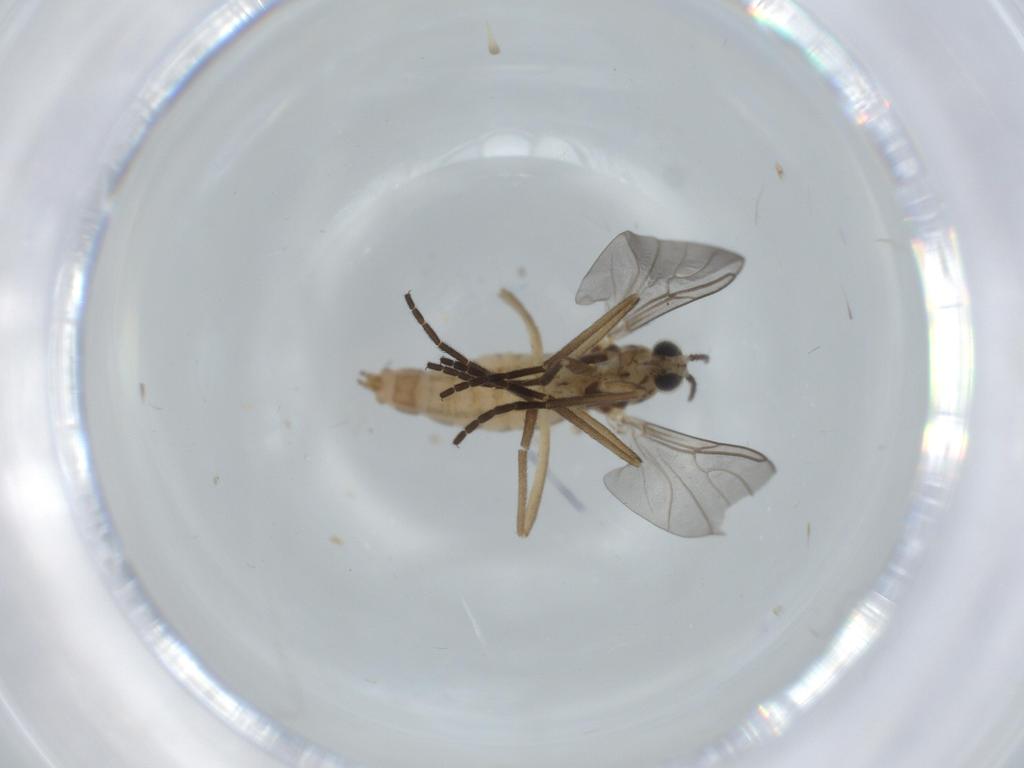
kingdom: Animalia
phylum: Arthropoda
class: Insecta
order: Diptera
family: Cecidomyiidae
